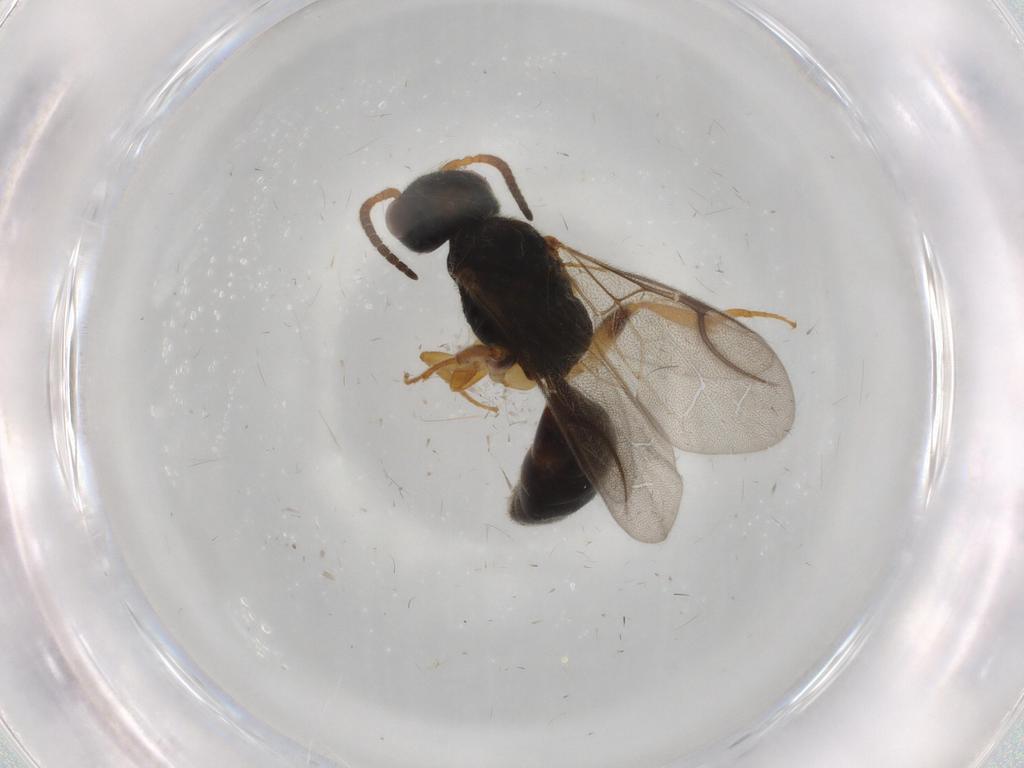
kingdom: Animalia
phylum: Arthropoda
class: Insecta
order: Hymenoptera
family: Bethylidae
